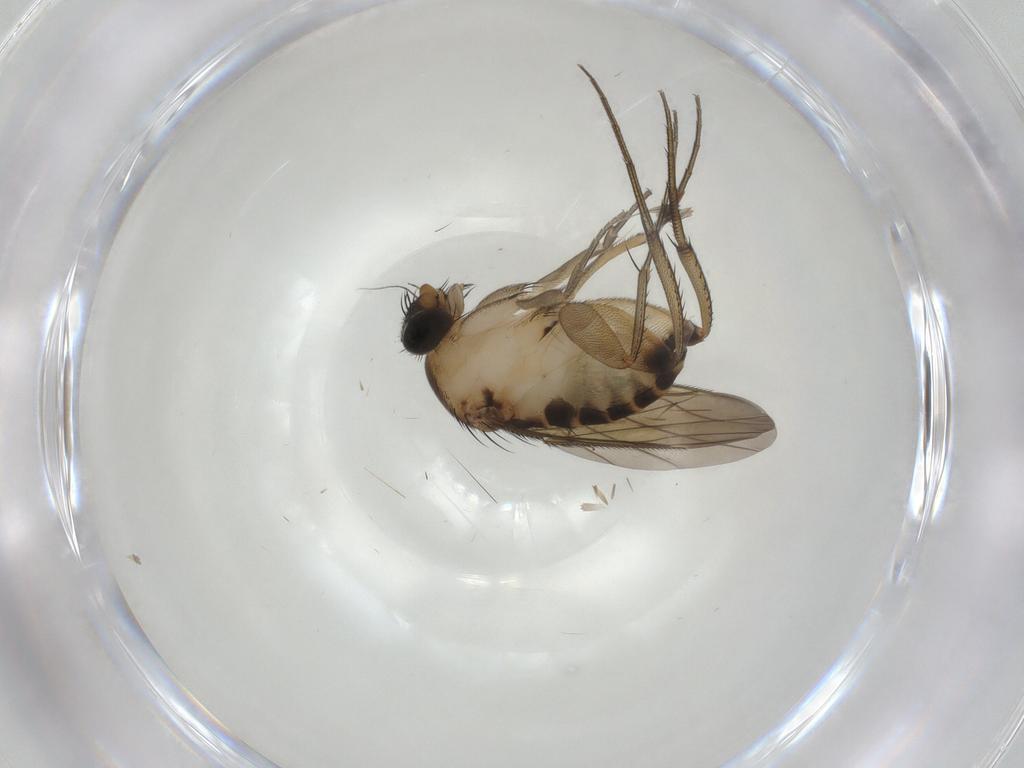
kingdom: Animalia
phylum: Arthropoda
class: Insecta
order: Diptera
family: Phoridae
